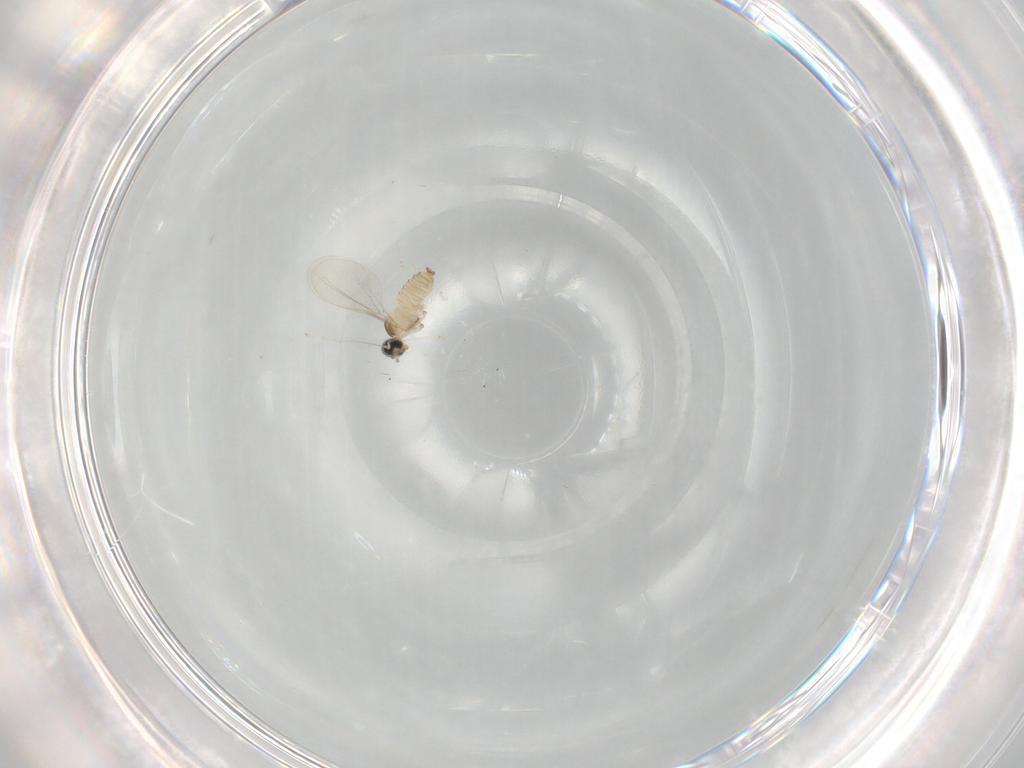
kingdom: Animalia
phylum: Arthropoda
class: Insecta
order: Diptera
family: Cecidomyiidae
